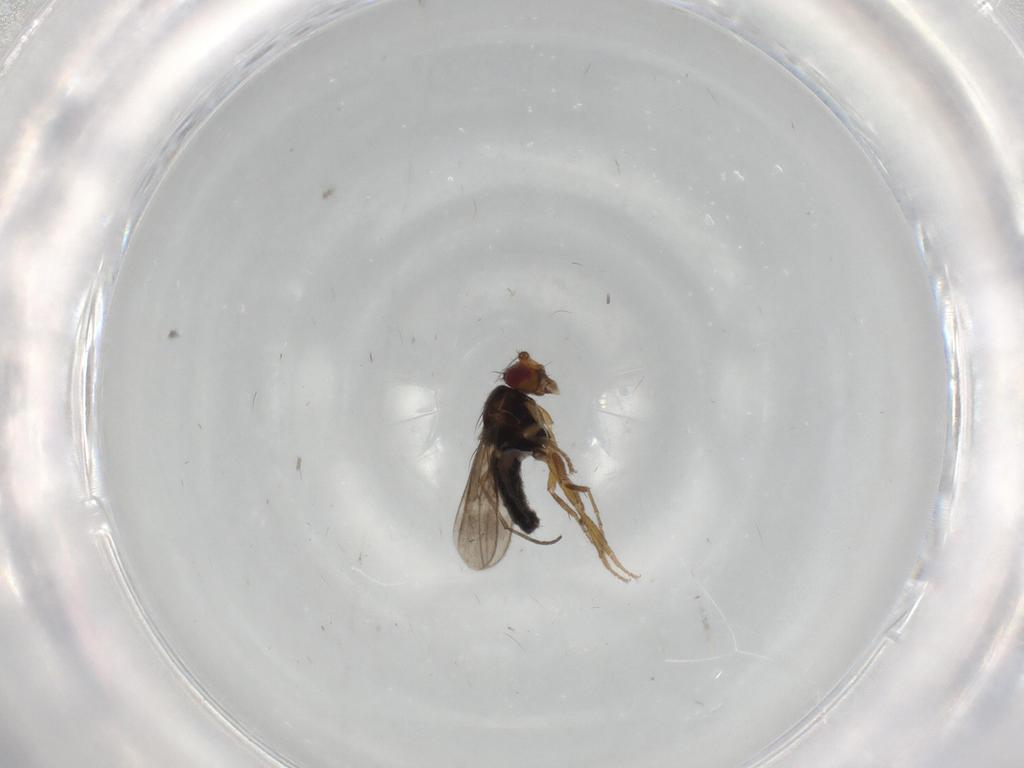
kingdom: Animalia
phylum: Arthropoda
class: Insecta
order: Diptera
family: Sphaeroceridae
